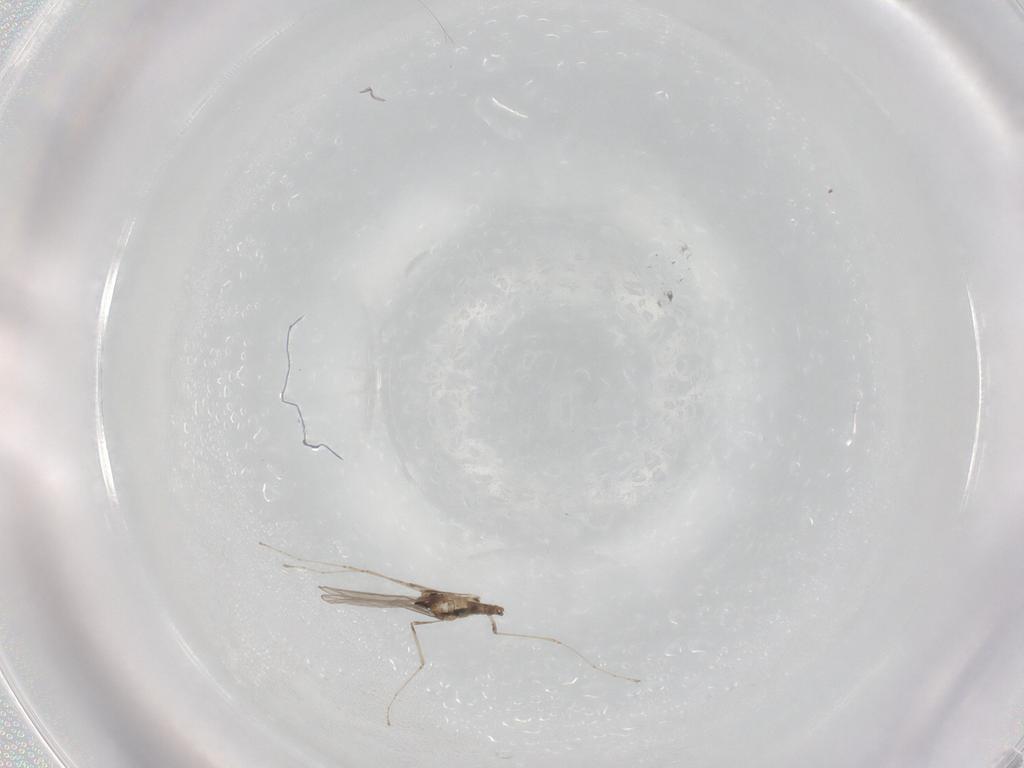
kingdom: Animalia
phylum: Arthropoda
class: Insecta
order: Diptera
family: Cecidomyiidae
